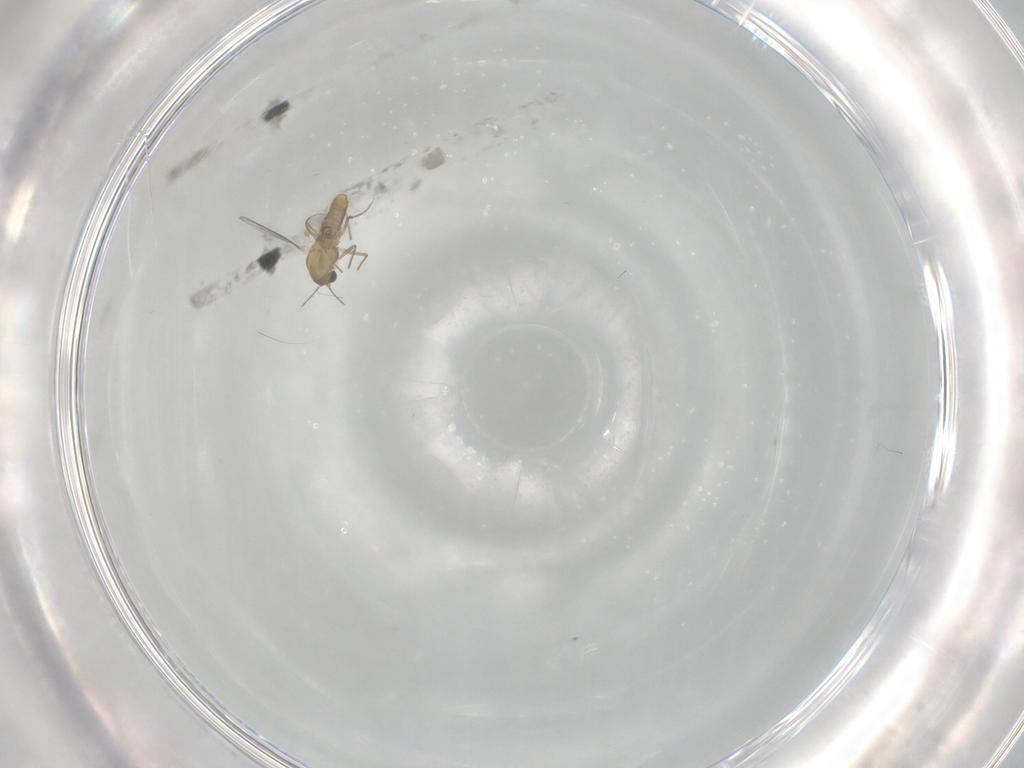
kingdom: Animalia
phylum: Arthropoda
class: Insecta
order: Diptera
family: Chironomidae
